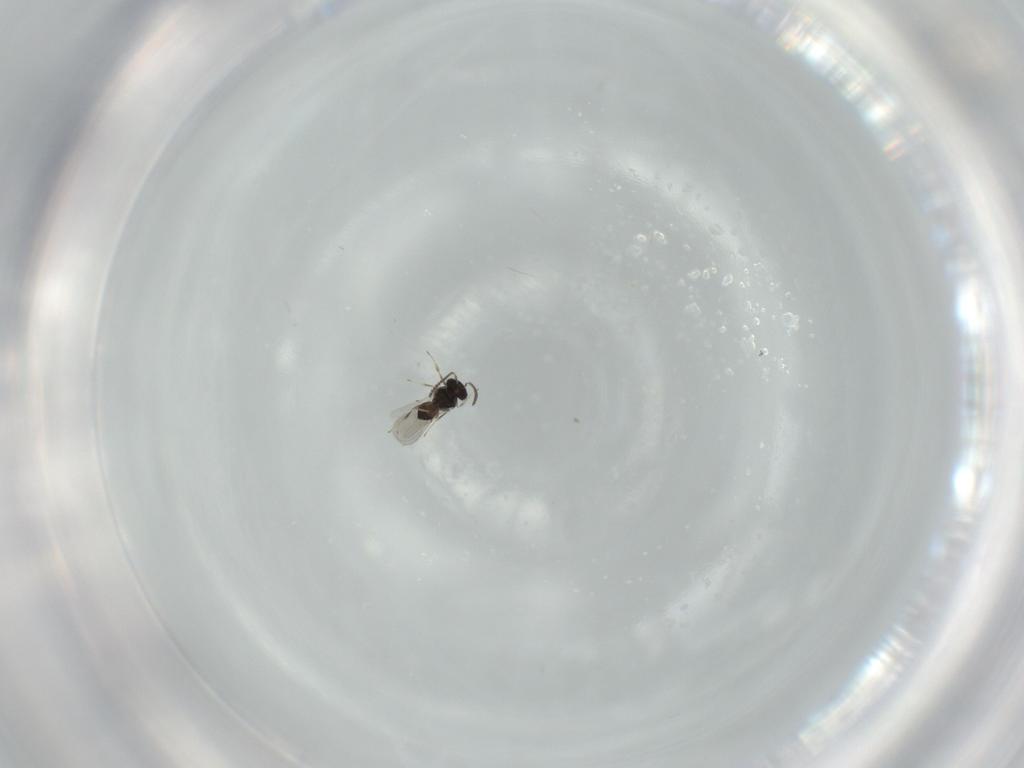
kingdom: Animalia
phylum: Arthropoda
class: Insecta
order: Hymenoptera
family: Scelionidae
